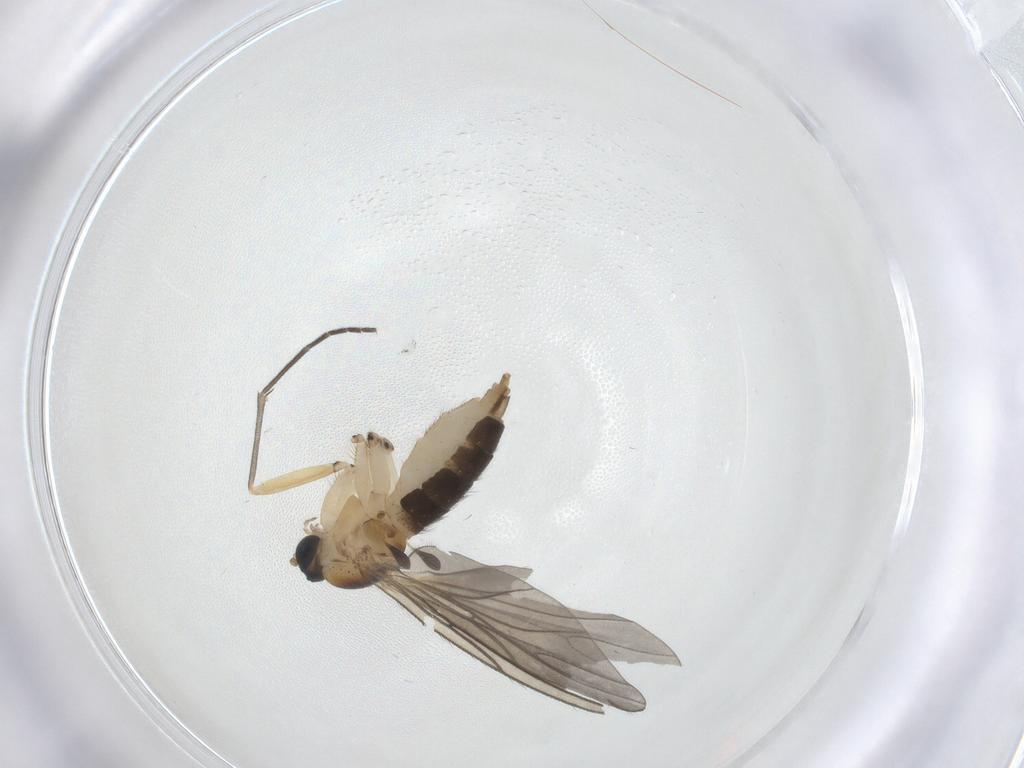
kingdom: Animalia
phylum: Arthropoda
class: Insecta
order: Diptera
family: Sciaridae
